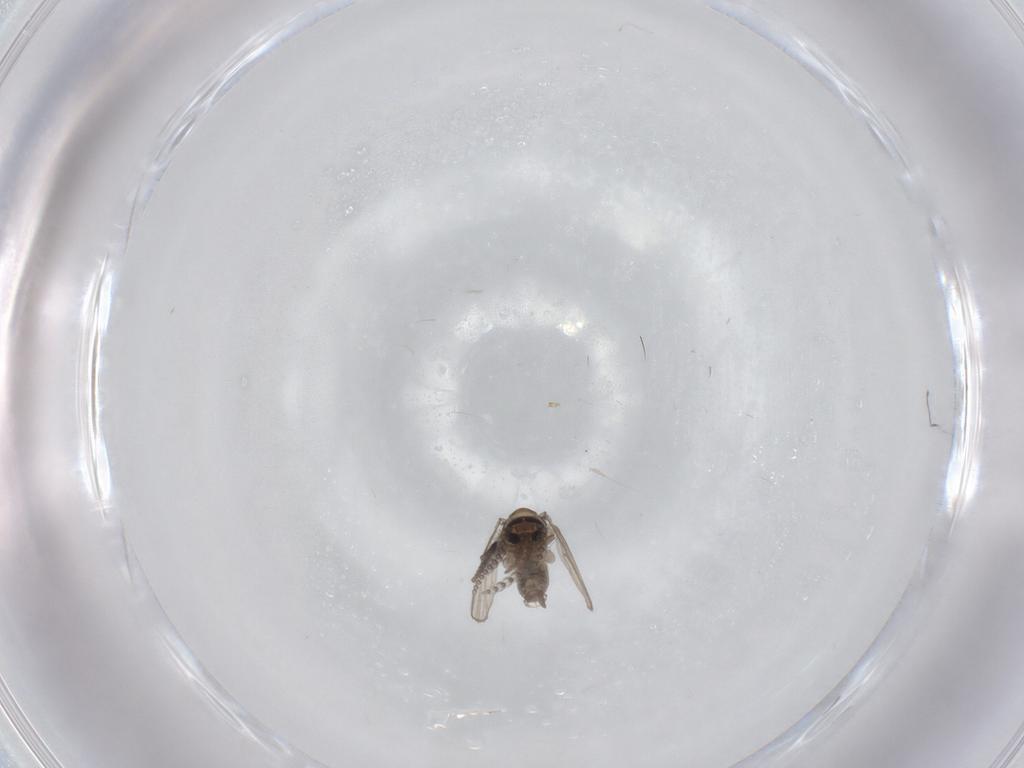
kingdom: Animalia
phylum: Arthropoda
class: Insecta
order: Diptera
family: Psychodidae
